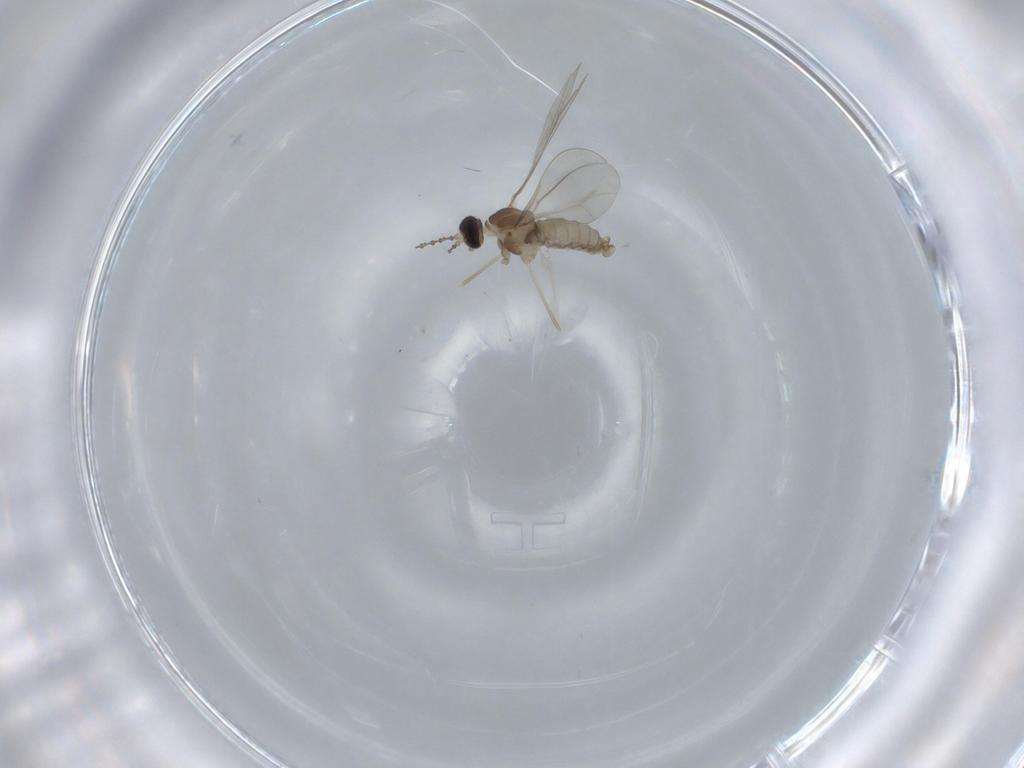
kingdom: Animalia
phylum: Arthropoda
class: Insecta
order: Diptera
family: Cecidomyiidae
